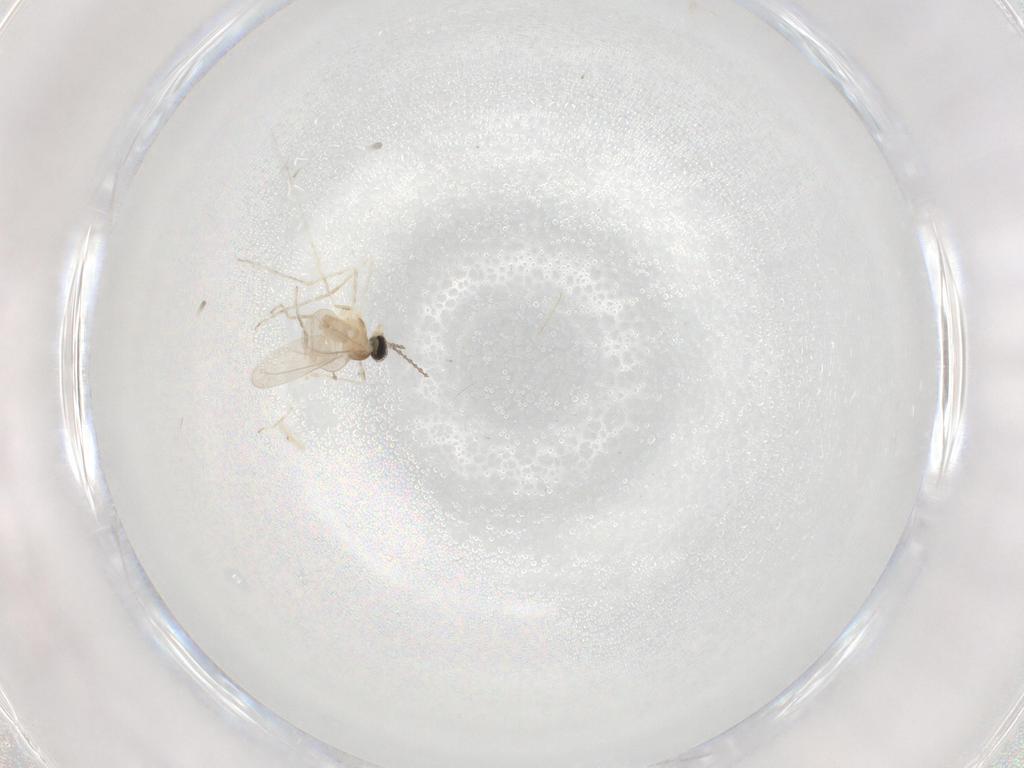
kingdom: Animalia
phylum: Arthropoda
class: Insecta
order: Diptera
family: Cecidomyiidae
